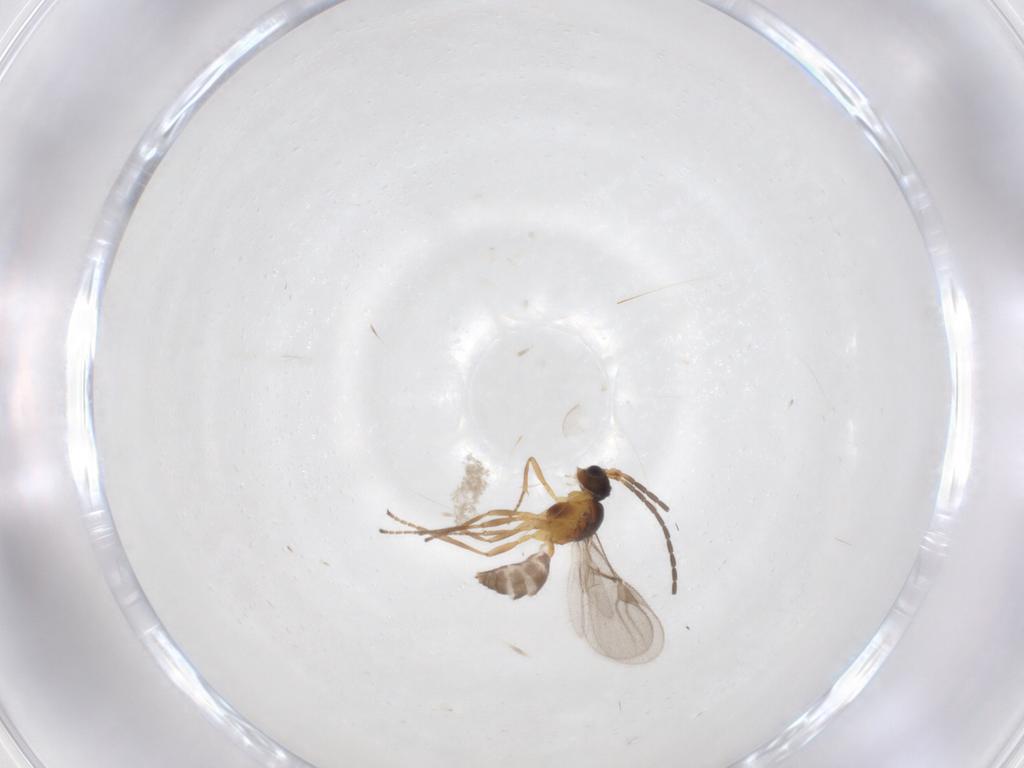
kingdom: Animalia
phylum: Arthropoda
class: Insecta
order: Hymenoptera
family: Braconidae
